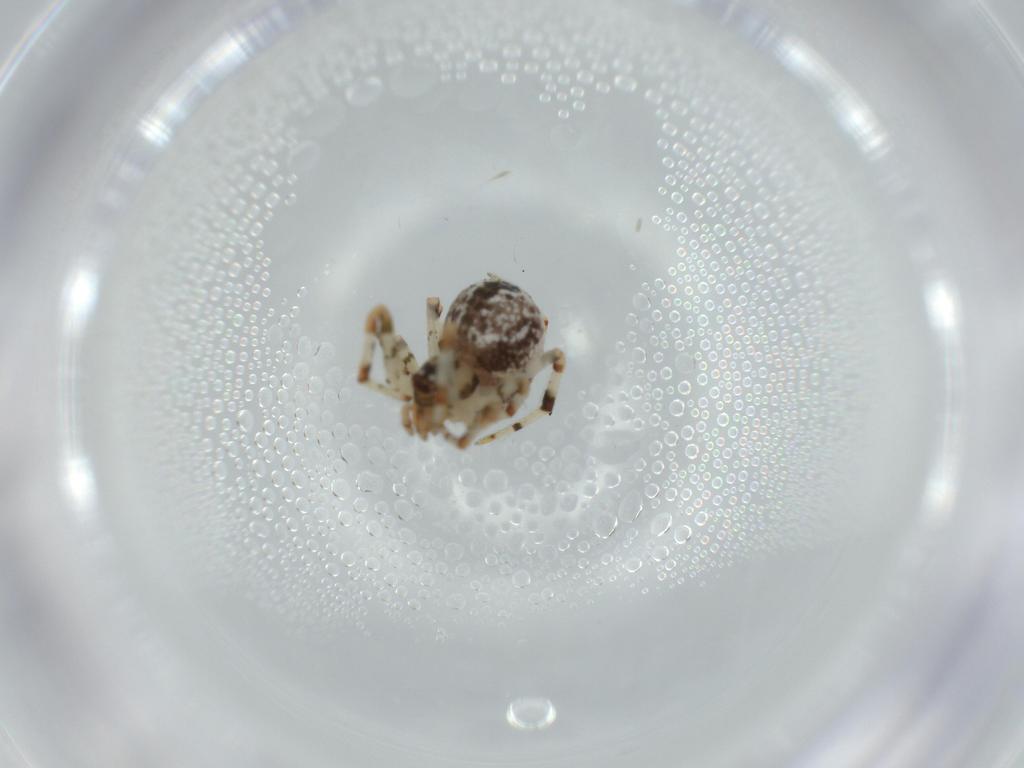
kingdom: Animalia
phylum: Arthropoda
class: Arachnida
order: Araneae
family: Theridiidae
